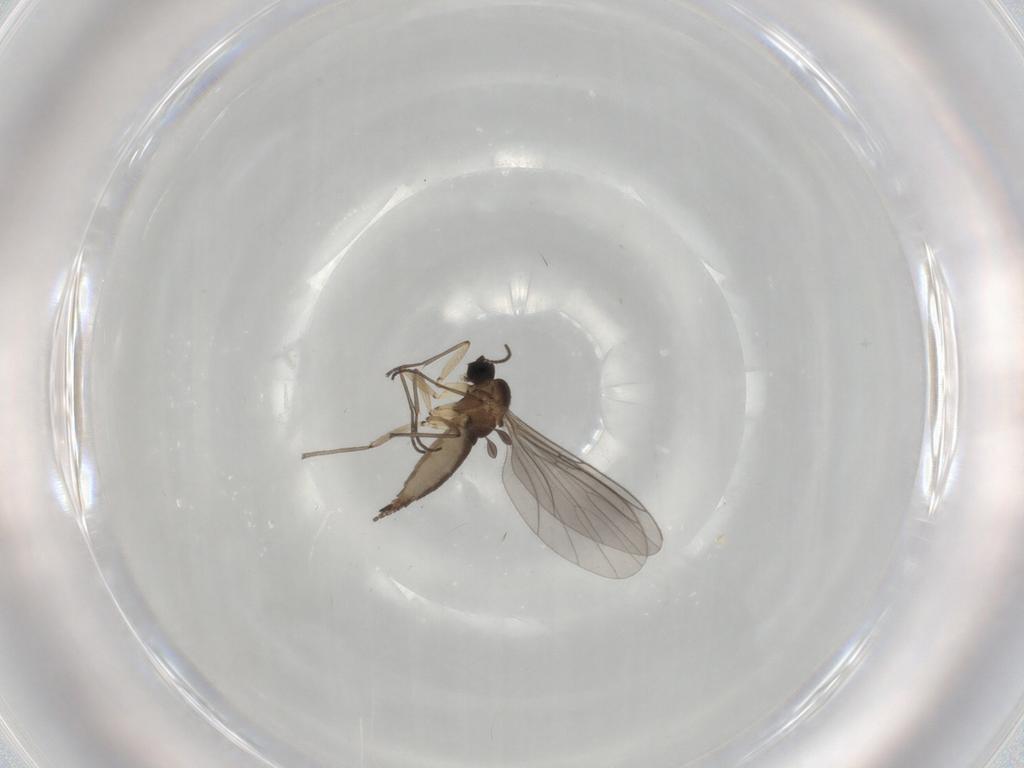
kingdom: Animalia
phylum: Arthropoda
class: Insecta
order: Diptera
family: Sciaridae
